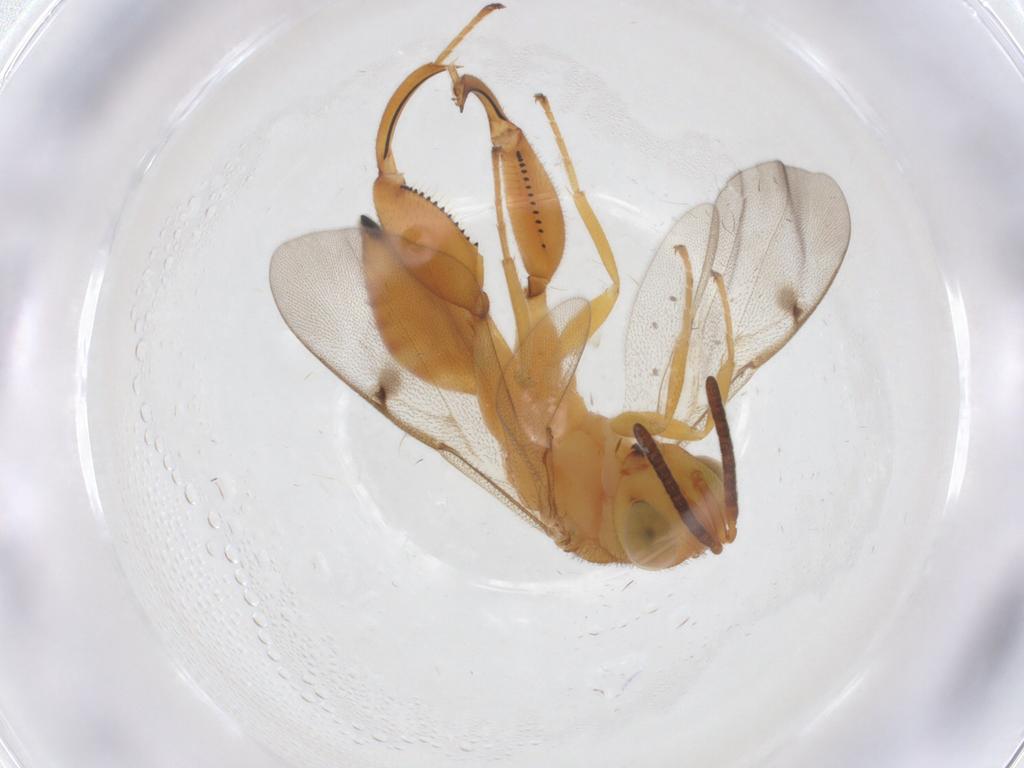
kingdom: Animalia
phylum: Arthropoda
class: Insecta
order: Hymenoptera
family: Chalcididae
